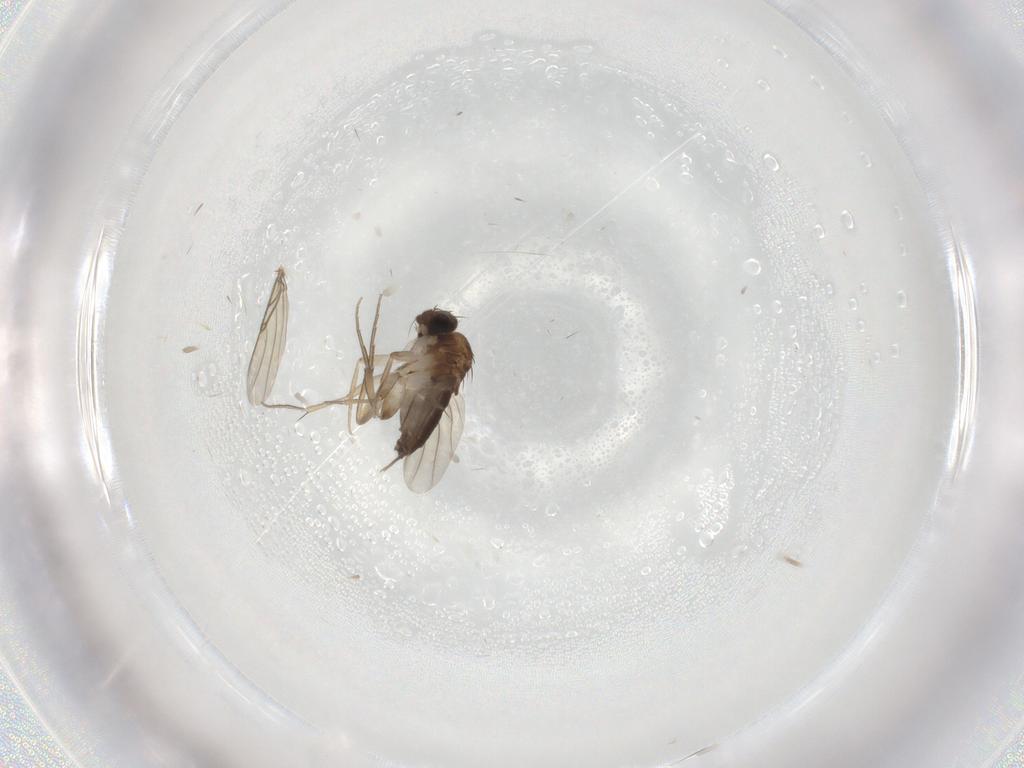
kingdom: Animalia
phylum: Arthropoda
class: Insecta
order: Diptera
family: Phoridae
